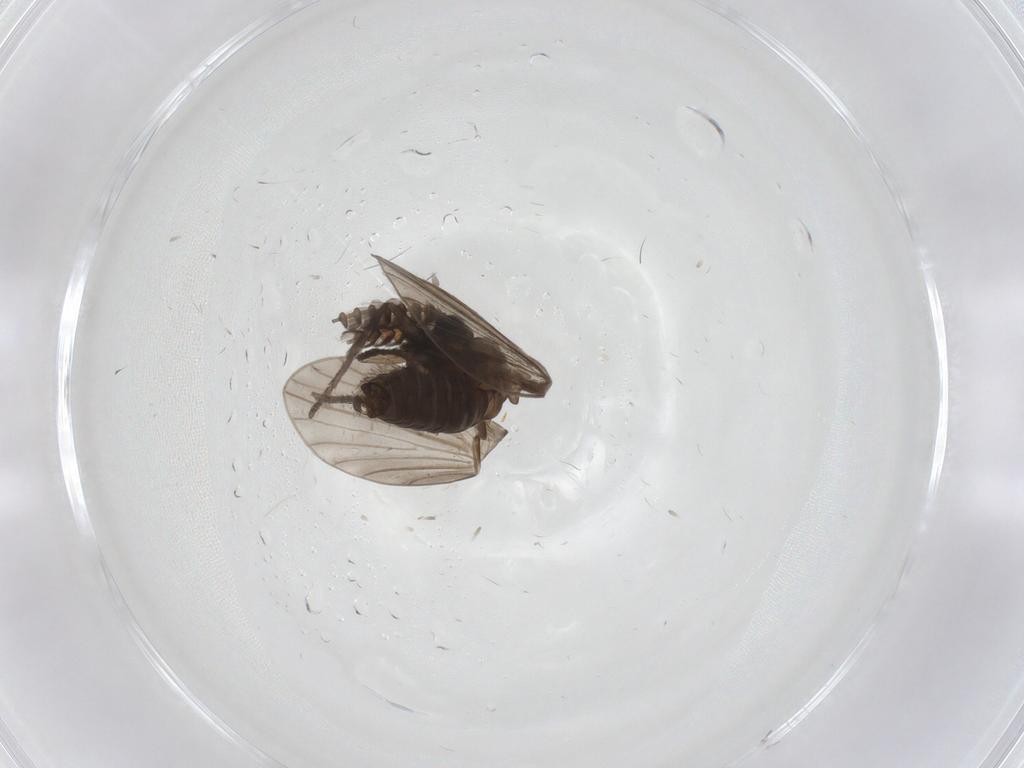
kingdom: Animalia
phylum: Arthropoda
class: Insecta
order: Diptera
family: Psychodidae
